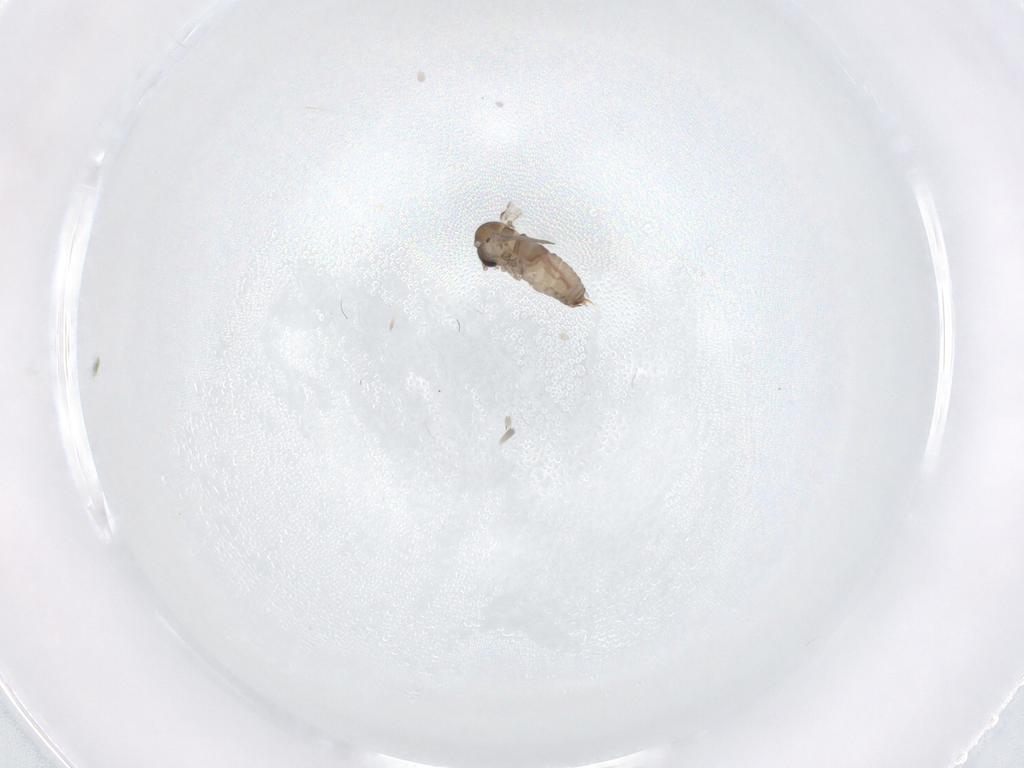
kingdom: Animalia
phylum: Arthropoda
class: Insecta
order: Diptera
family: Psychodidae
